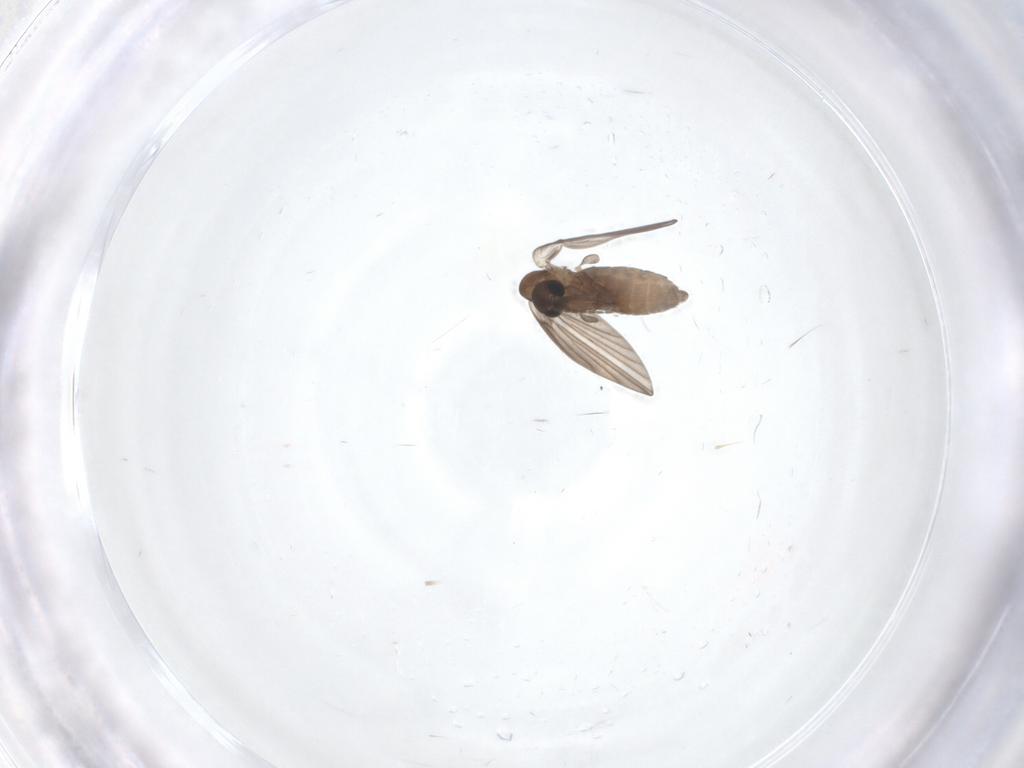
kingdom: Animalia
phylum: Arthropoda
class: Insecta
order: Diptera
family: Psychodidae
